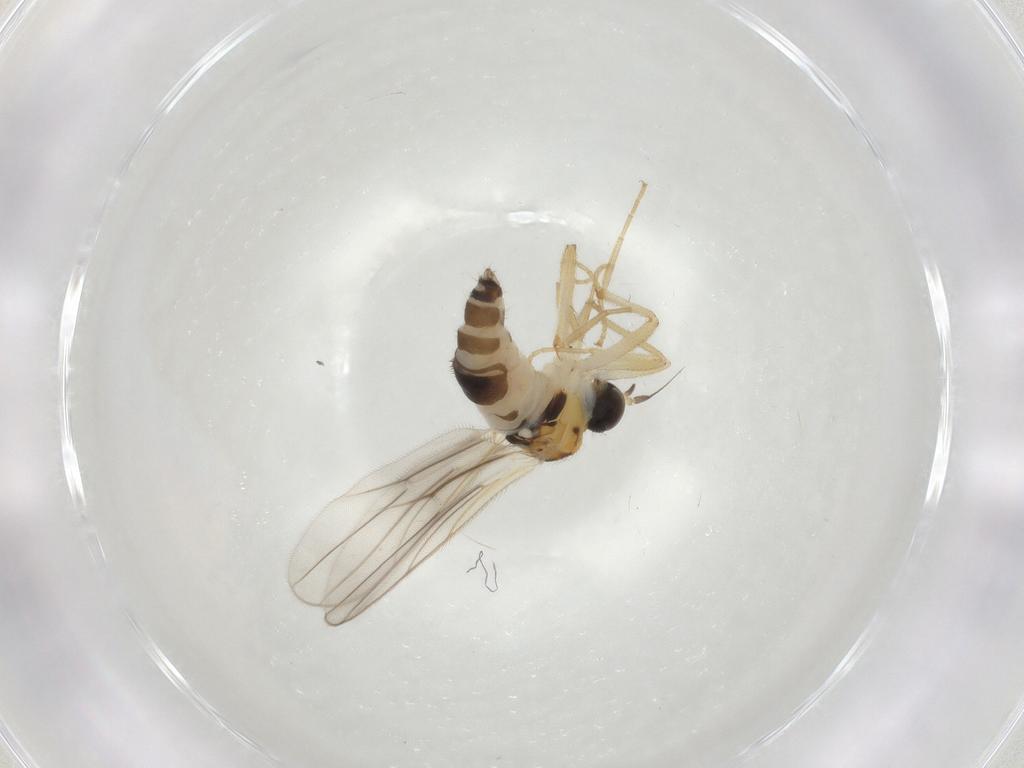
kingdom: Animalia
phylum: Arthropoda
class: Insecta
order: Diptera
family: Hybotidae
